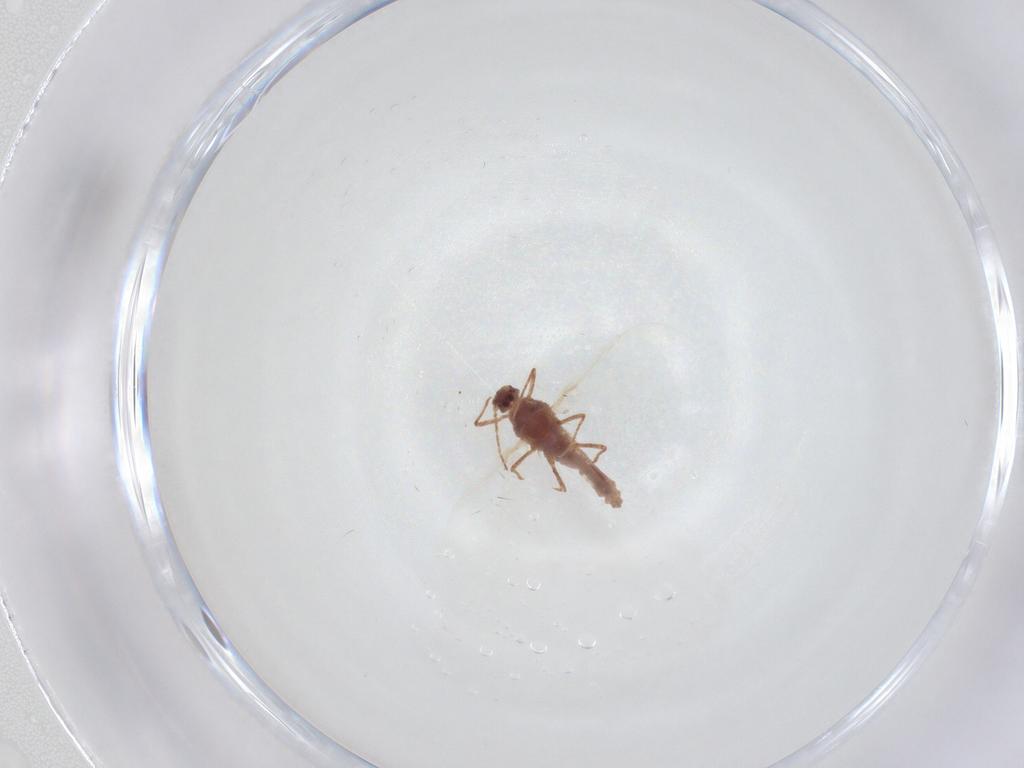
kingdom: Animalia
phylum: Arthropoda
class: Insecta
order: Hemiptera
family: Cicadellidae
